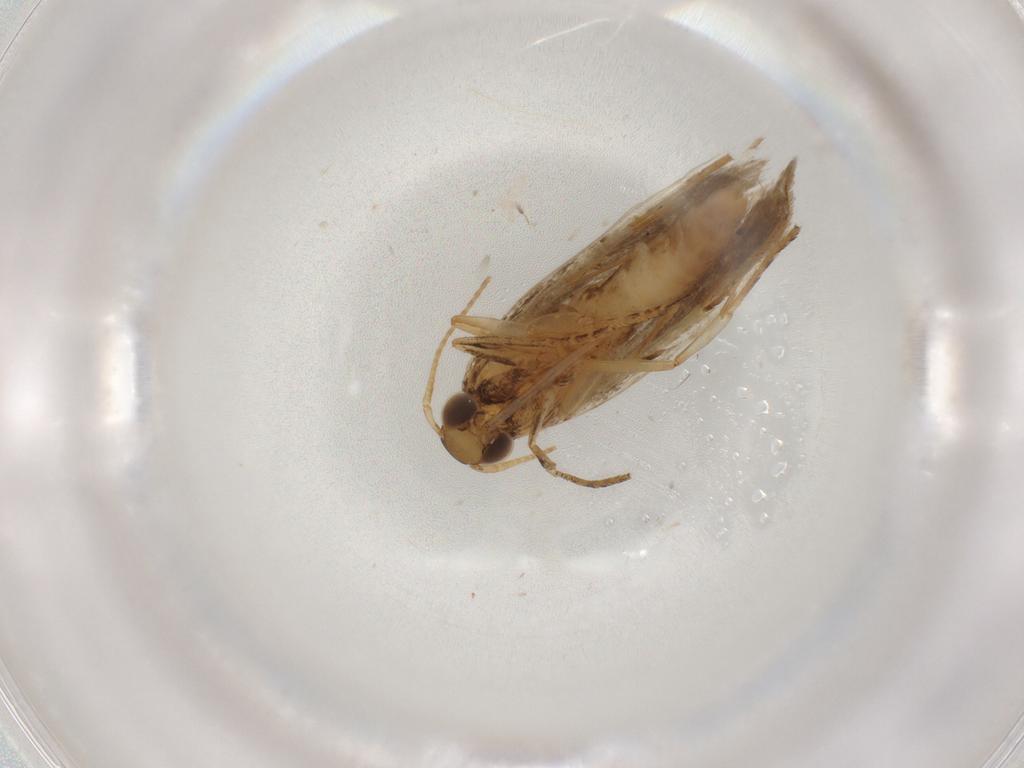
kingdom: Animalia
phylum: Arthropoda
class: Insecta
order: Lepidoptera
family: Gelechiidae
